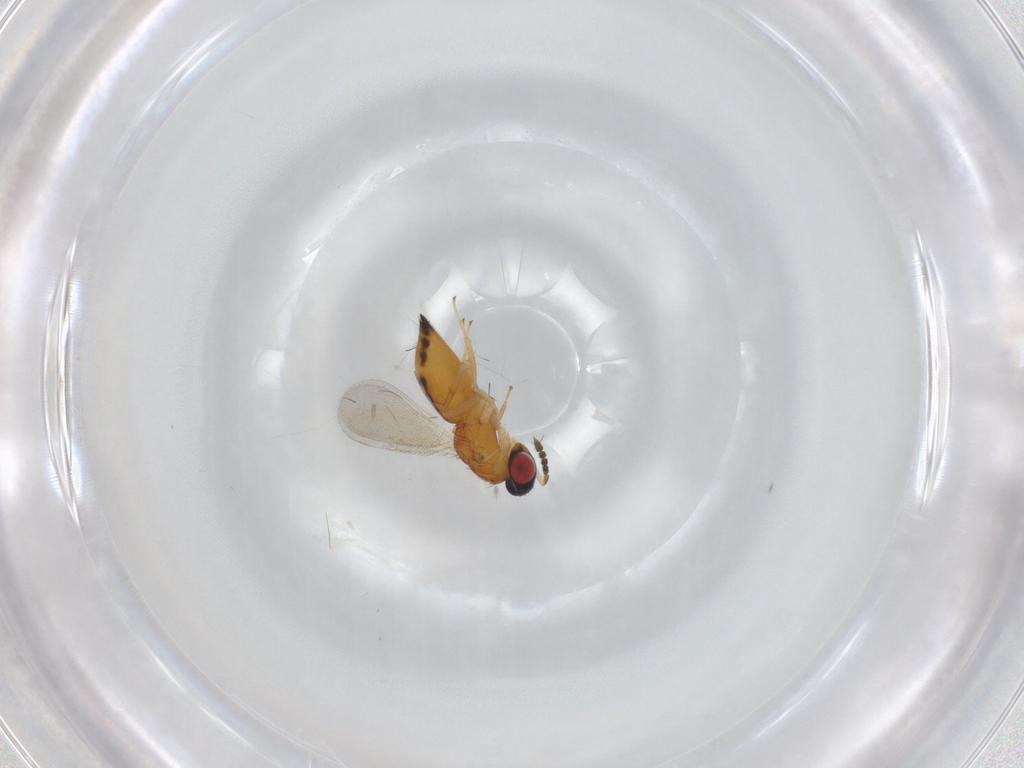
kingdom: Animalia
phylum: Arthropoda
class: Insecta
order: Hymenoptera
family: Eulophidae
